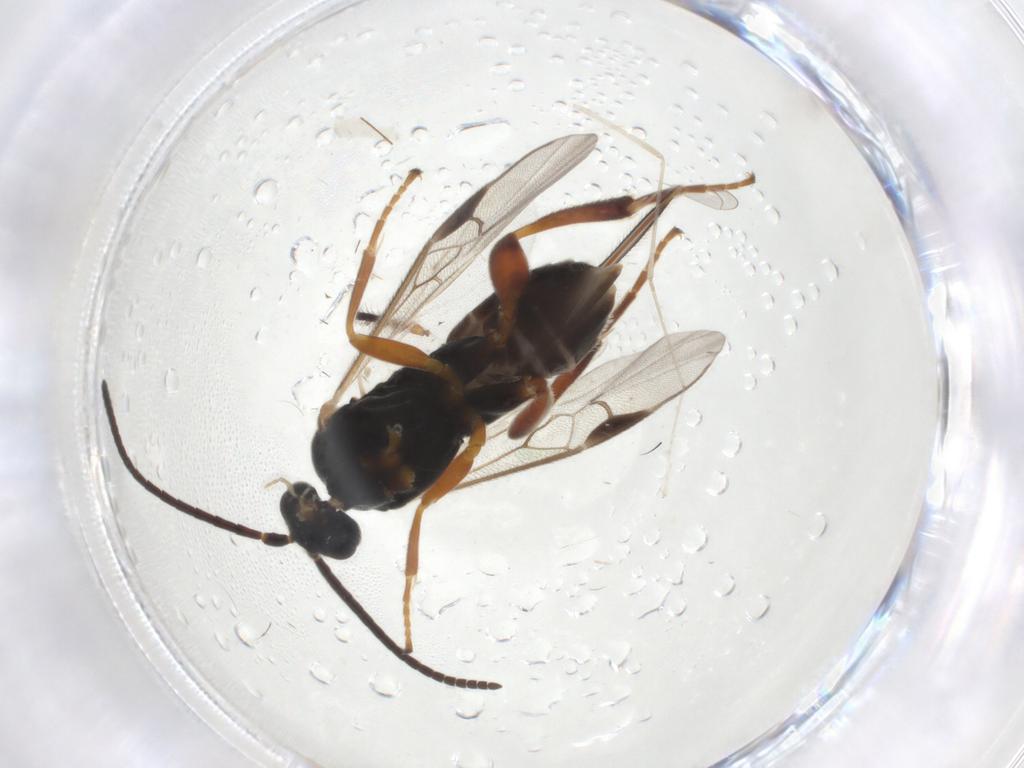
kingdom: Animalia
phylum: Arthropoda
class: Insecta
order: Hymenoptera
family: Braconidae
